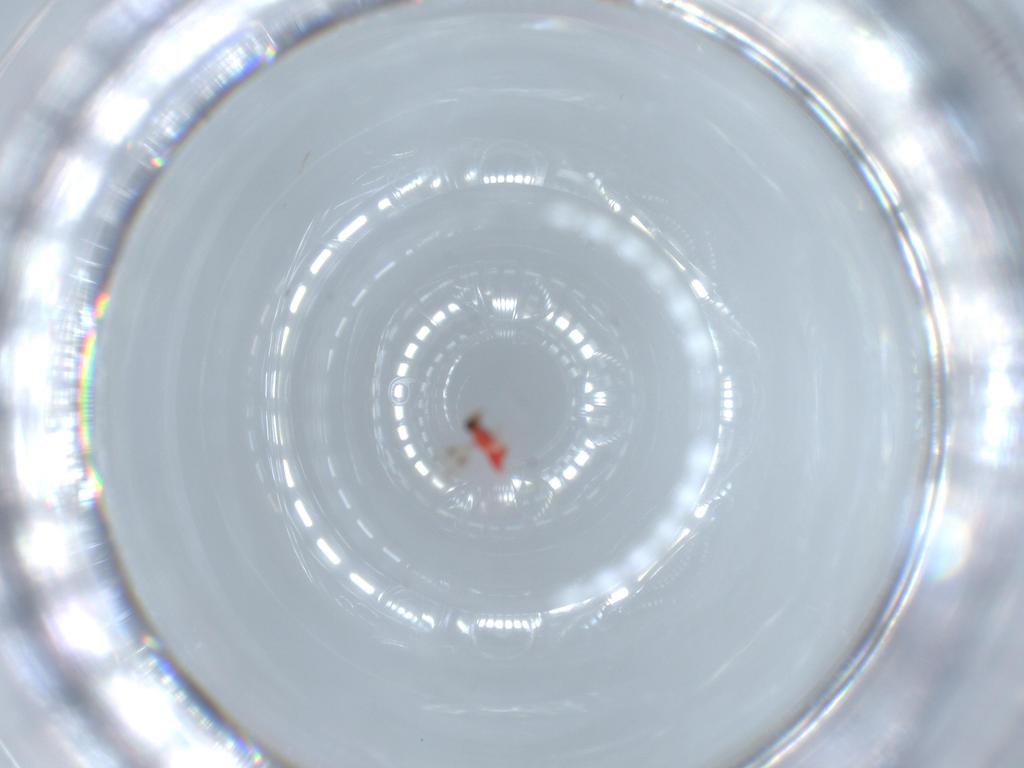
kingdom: Animalia
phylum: Arthropoda
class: Insecta
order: Hymenoptera
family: Trichogrammatidae
